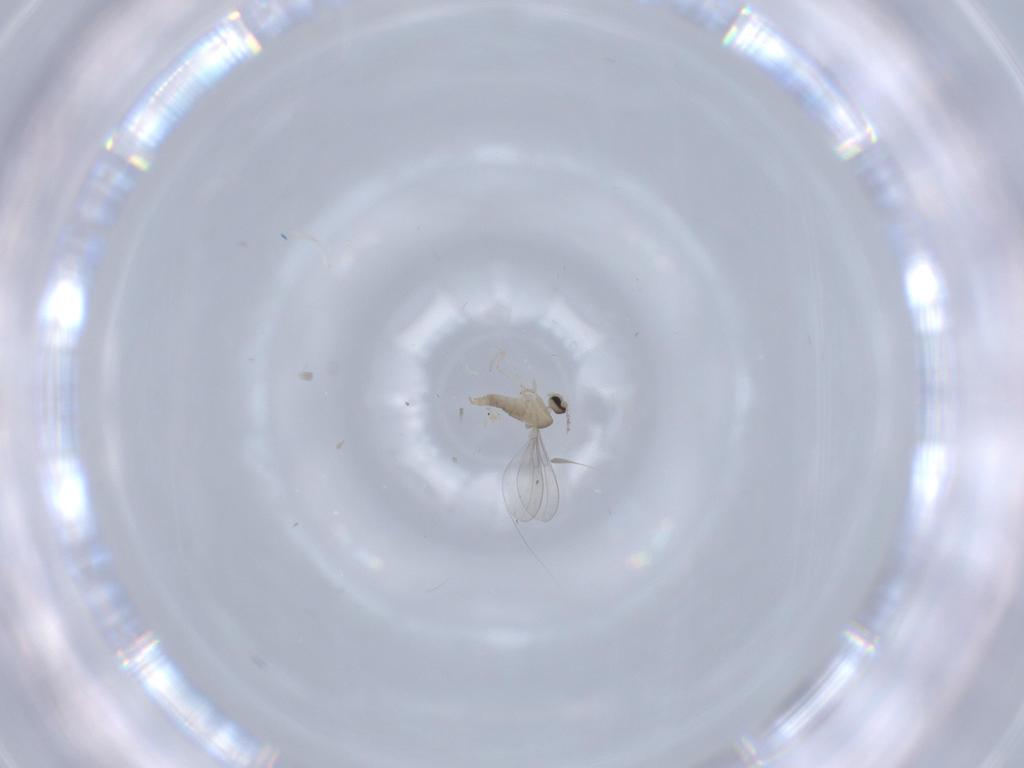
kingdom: Animalia
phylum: Arthropoda
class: Insecta
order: Diptera
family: Cecidomyiidae
